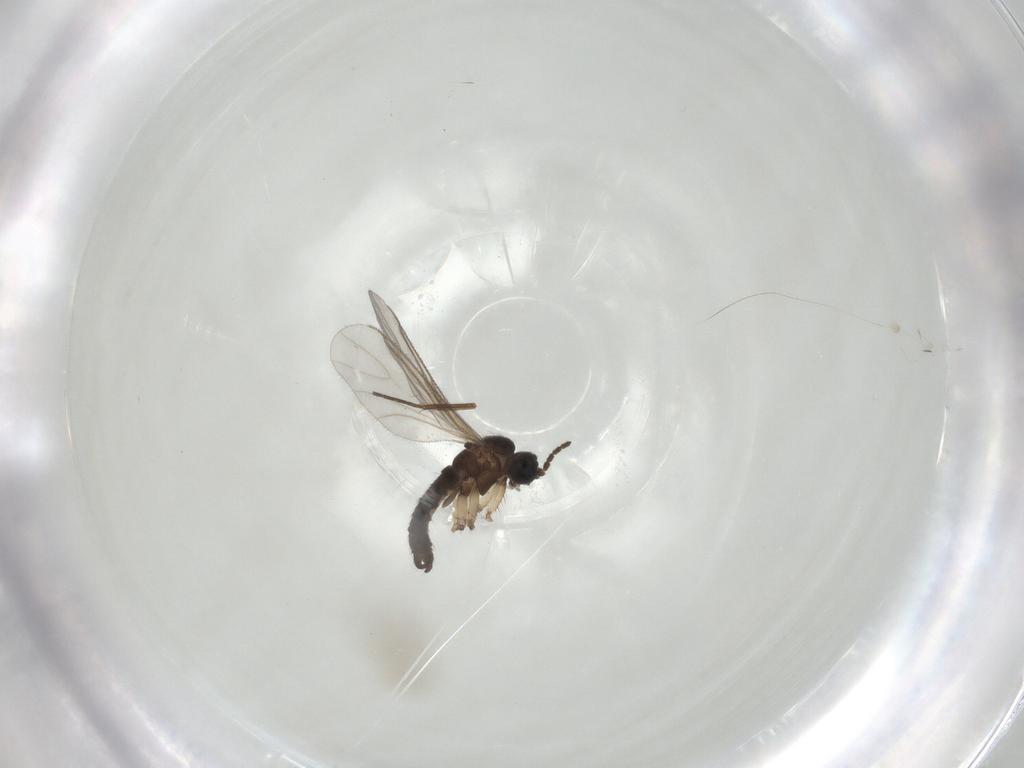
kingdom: Animalia
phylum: Arthropoda
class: Insecta
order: Diptera
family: Sciaridae
